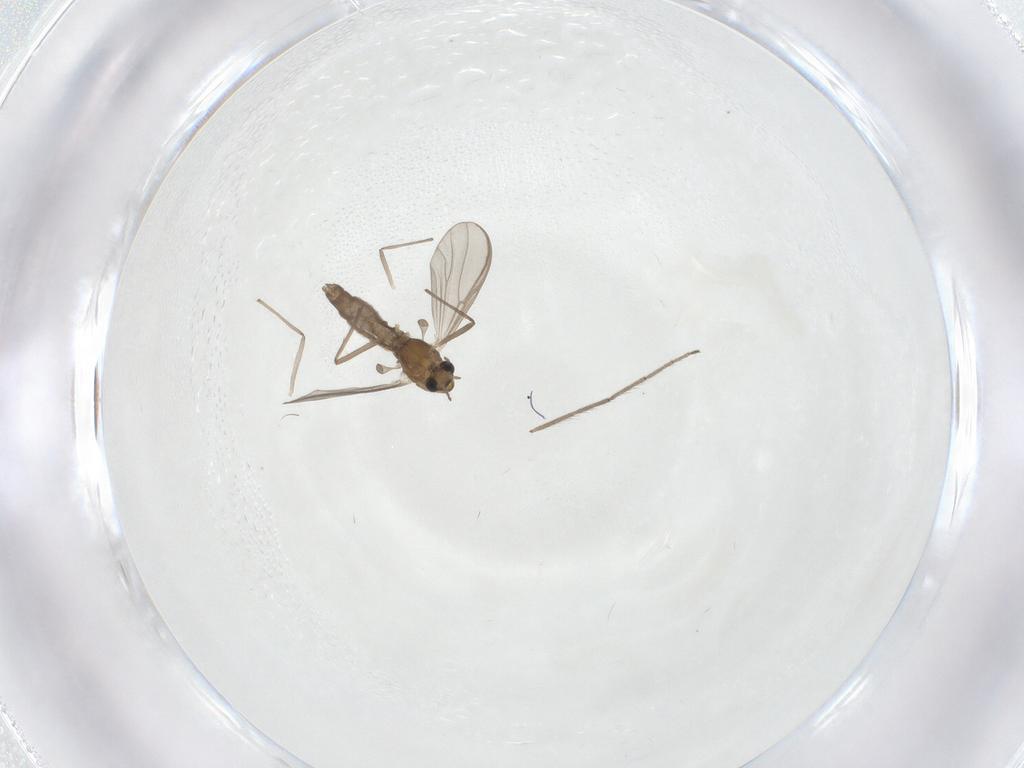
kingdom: Animalia
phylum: Arthropoda
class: Insecta
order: Diptera
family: Chironomidae
